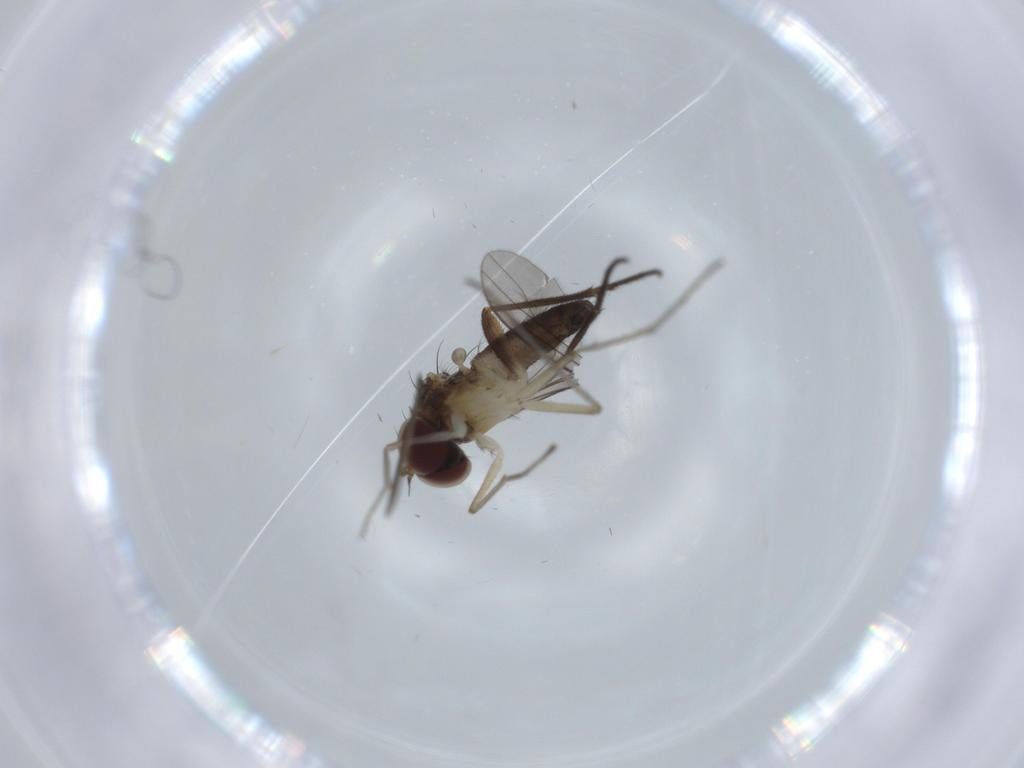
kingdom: Animalia
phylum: Arthropoda
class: Insecta
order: Diptera
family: Dolichopodidae
